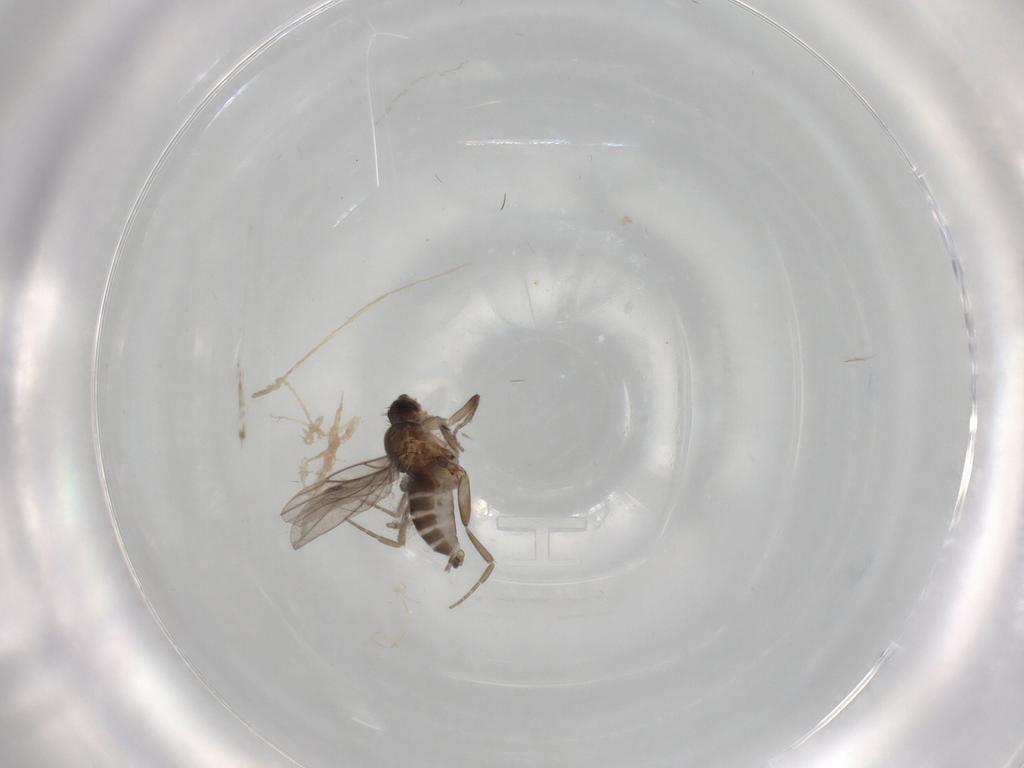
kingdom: Animalia
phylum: Arthropoda
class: Insecta
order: Diptera
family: Phoridae
